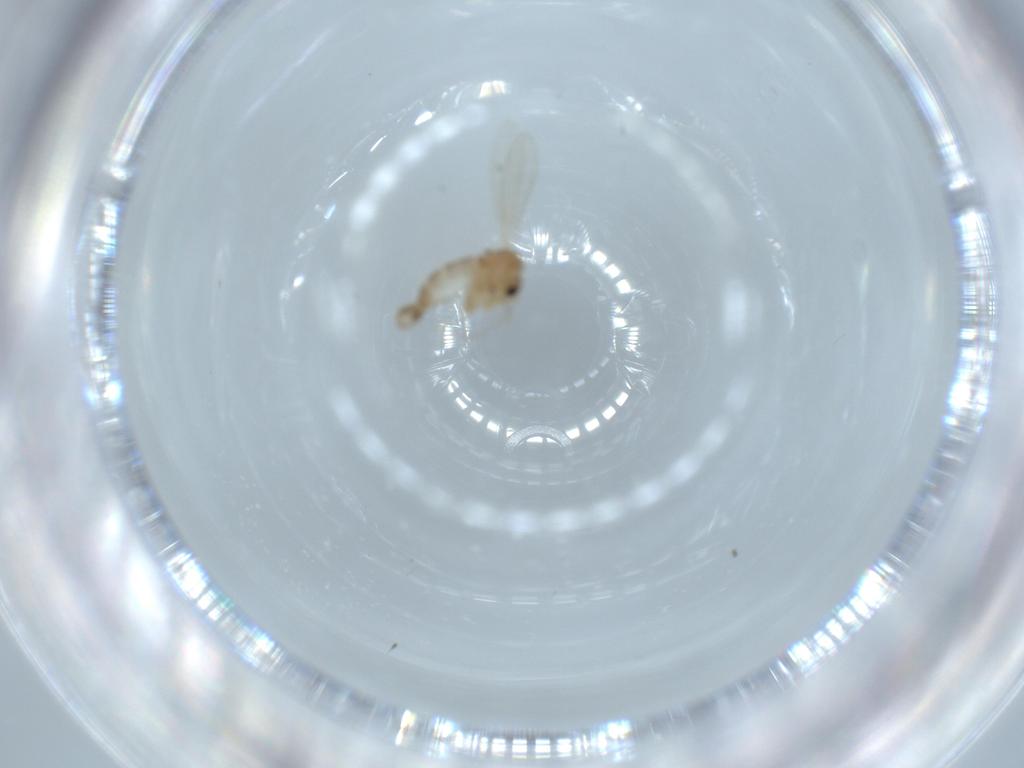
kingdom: Animalia
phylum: Arthropoda
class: Insecta
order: Diptera
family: Psychodidae
